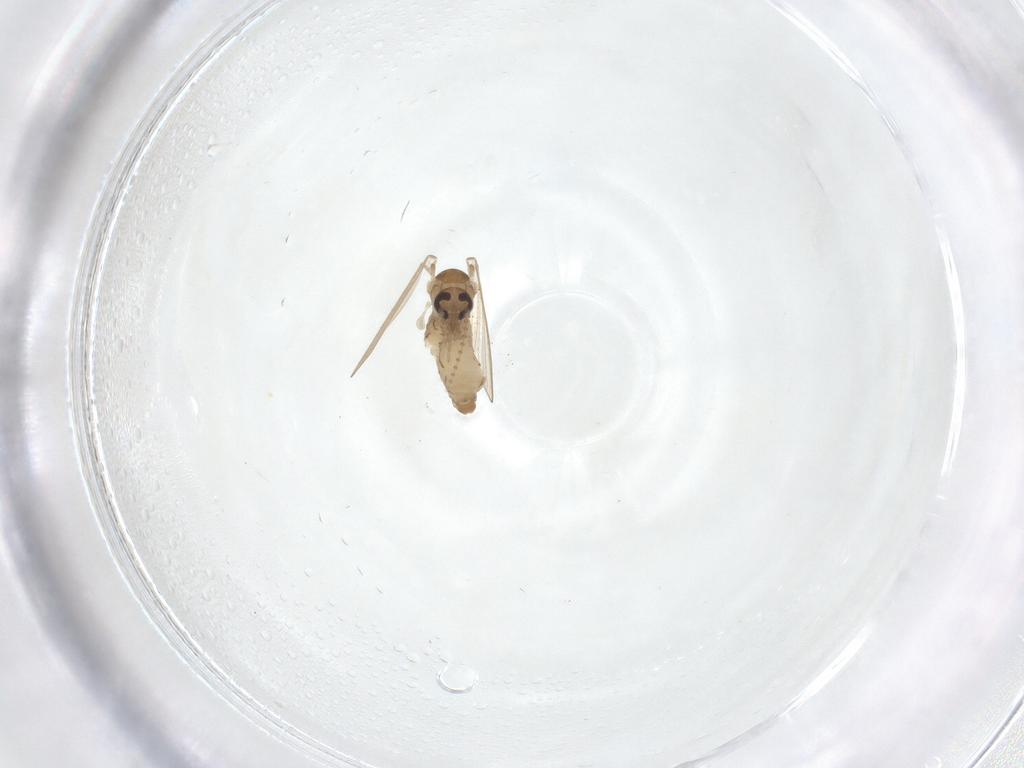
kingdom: Animalia
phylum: Arthropoda
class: Insecta
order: Diptera
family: Psychodidae
